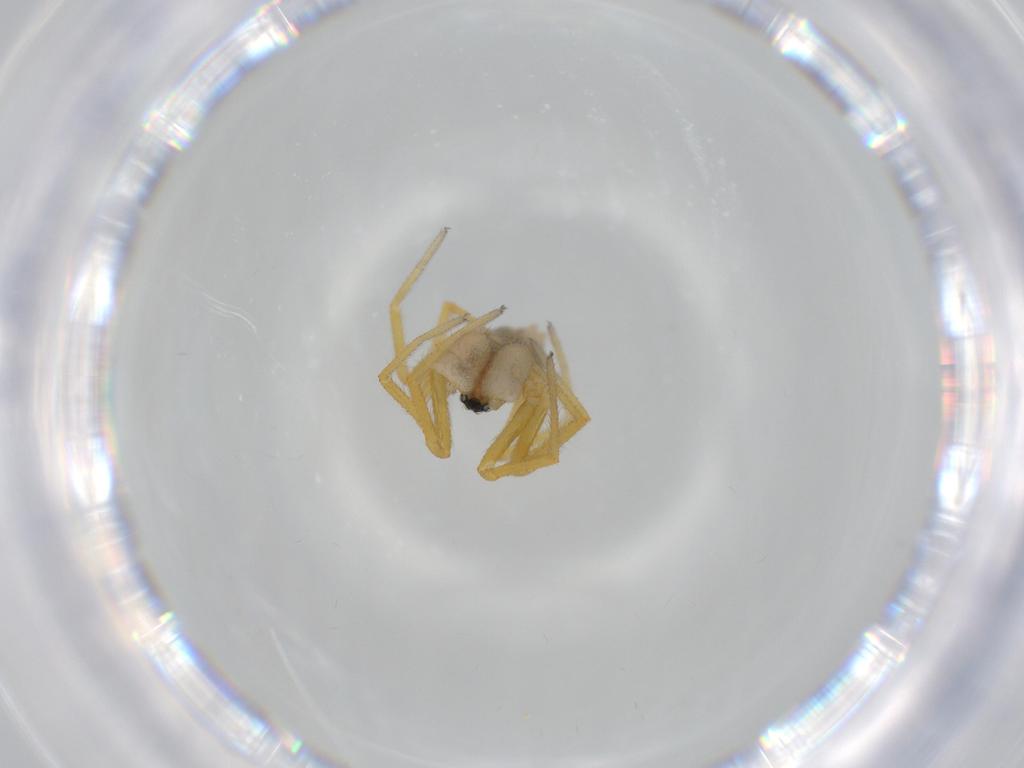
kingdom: Animalia
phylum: Arthropoda
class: Arachnida
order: Araneae
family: Linyphiidae
